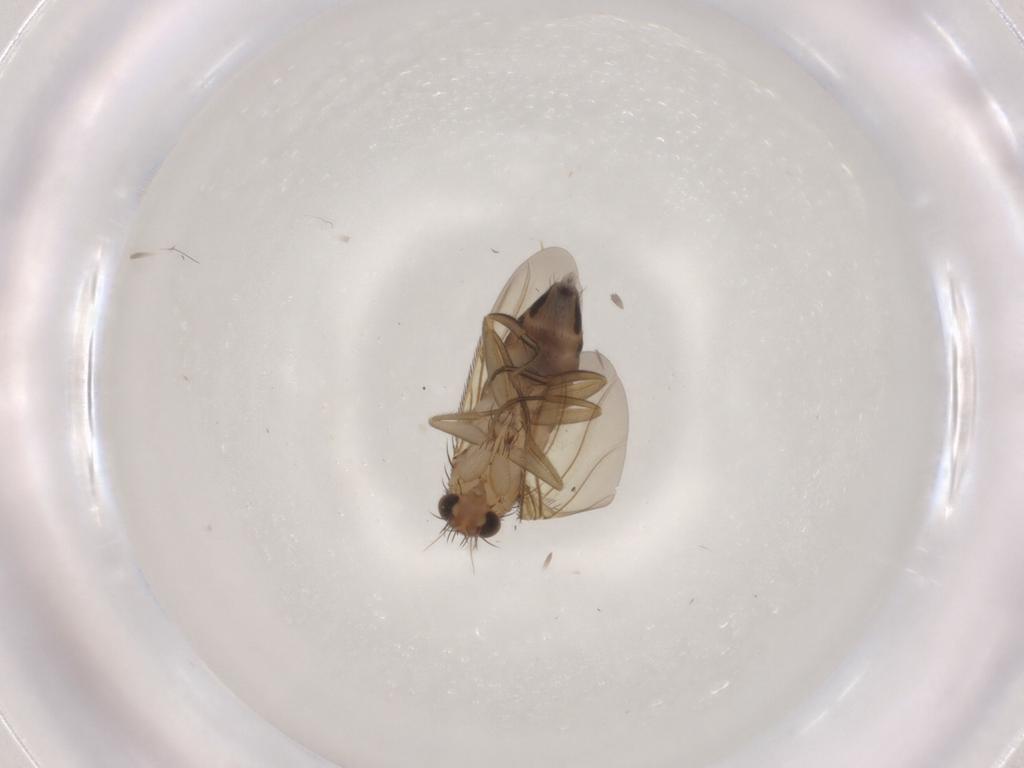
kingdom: Animalia
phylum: Arthropoda
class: Insecta
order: Diptera
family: Phoridae
